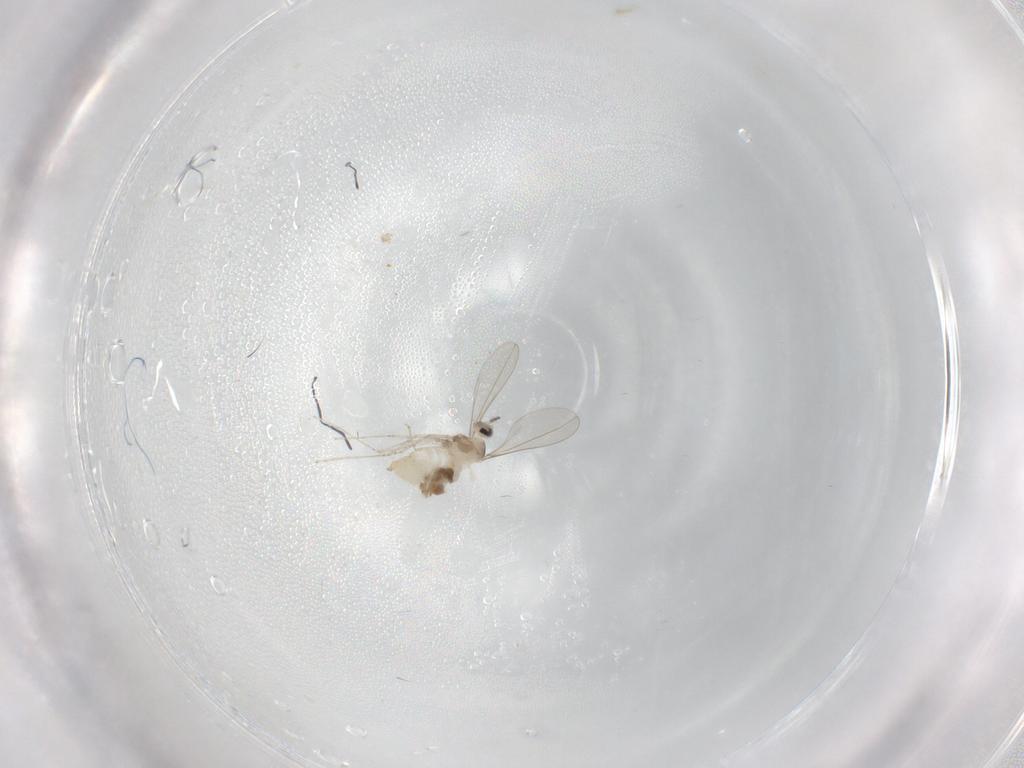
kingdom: Animalia
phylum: Arthropoda
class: Insecta
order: Diptera
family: Cecidomyiidae
